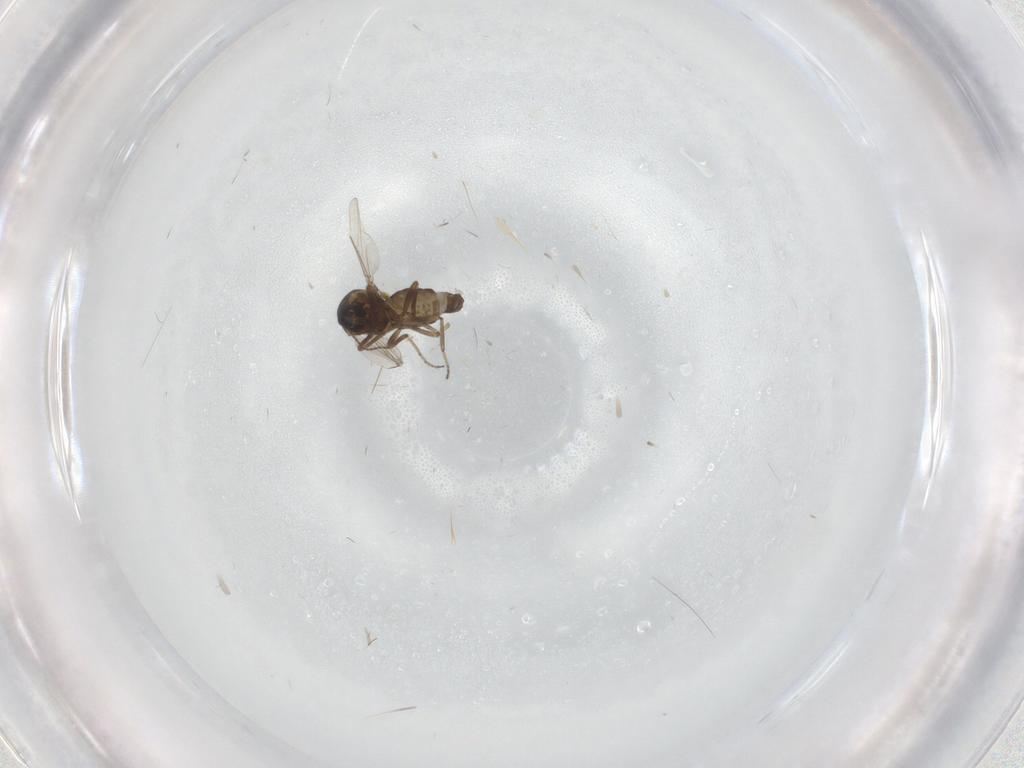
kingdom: Animalia
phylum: Arthropoda
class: Insecta
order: Diptera
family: Ceratopogonidae
